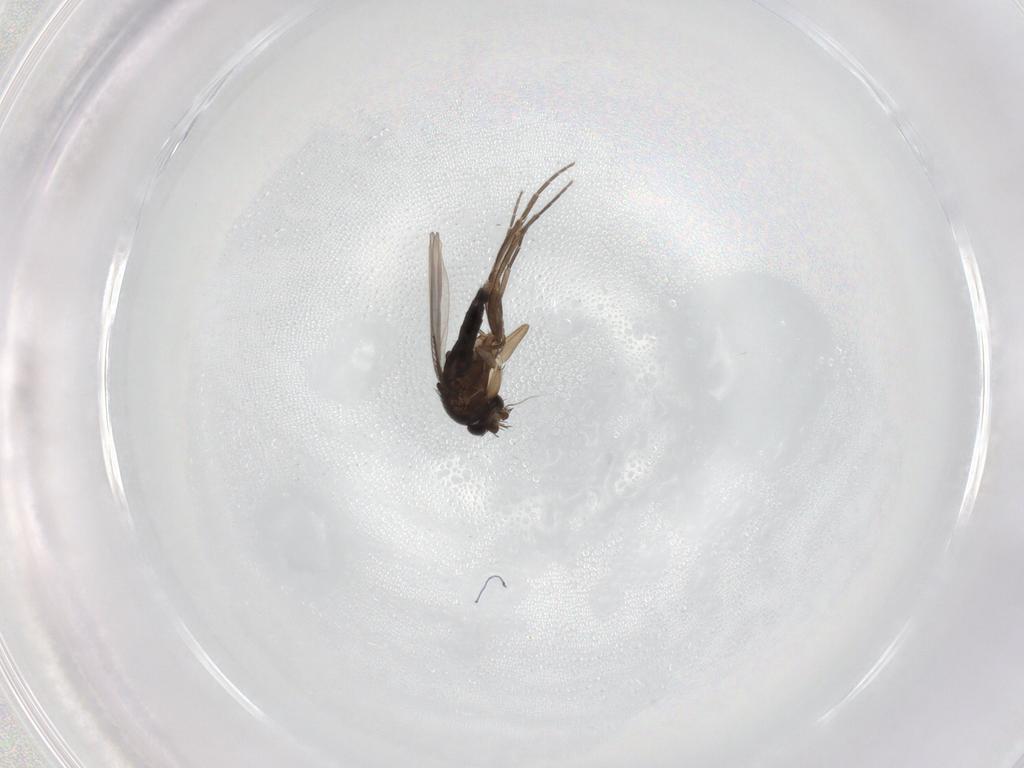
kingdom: Animalia
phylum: Arthropoda
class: Insecta
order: Diptera
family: Phoridae
